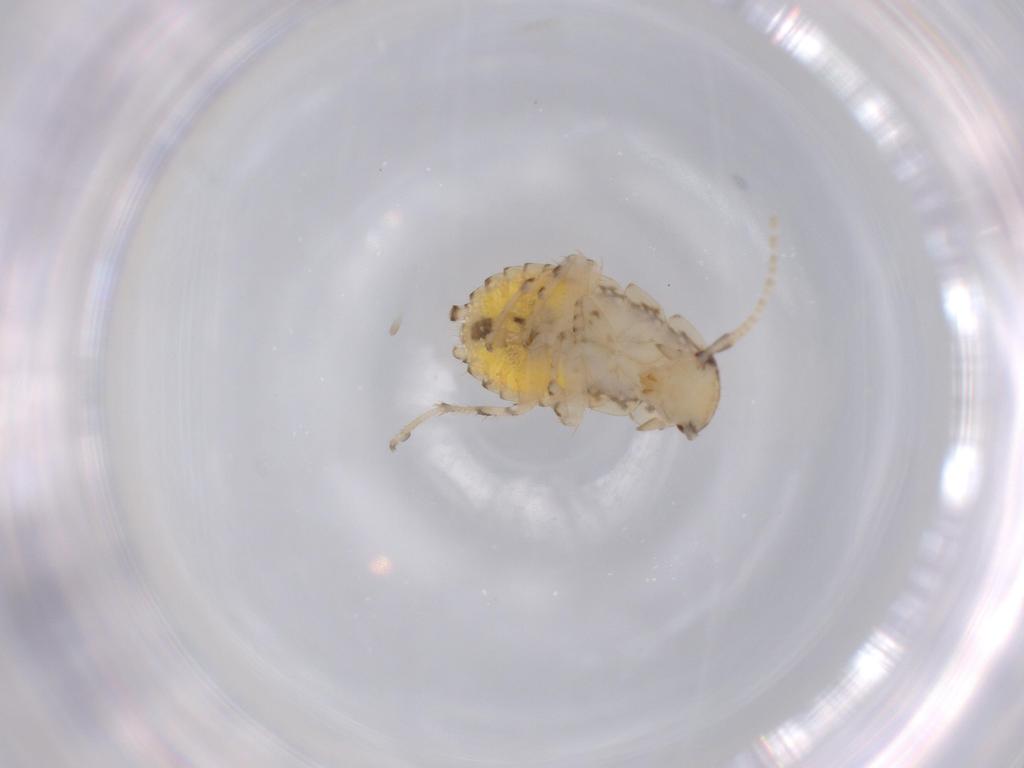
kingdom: Animalia
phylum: Arthropoda
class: Insecta
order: Blattodea
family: Ectobiidae
